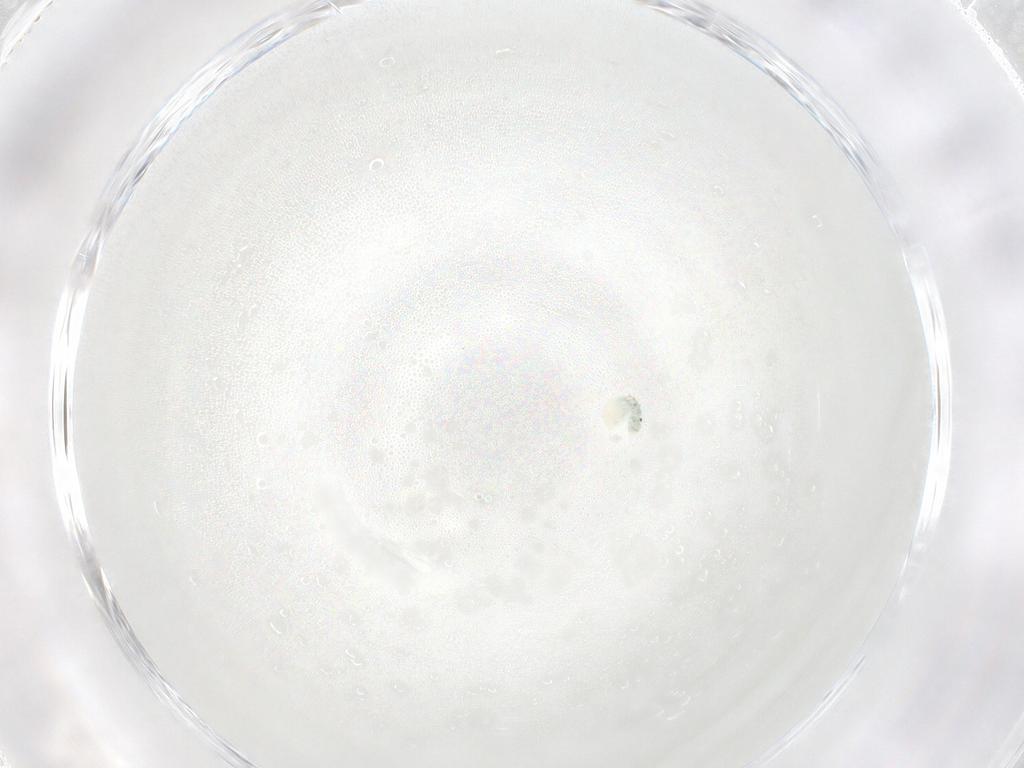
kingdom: Animalia
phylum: Arthropoda
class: Arachnida
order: Trombidiformes
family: Arrenuridae
